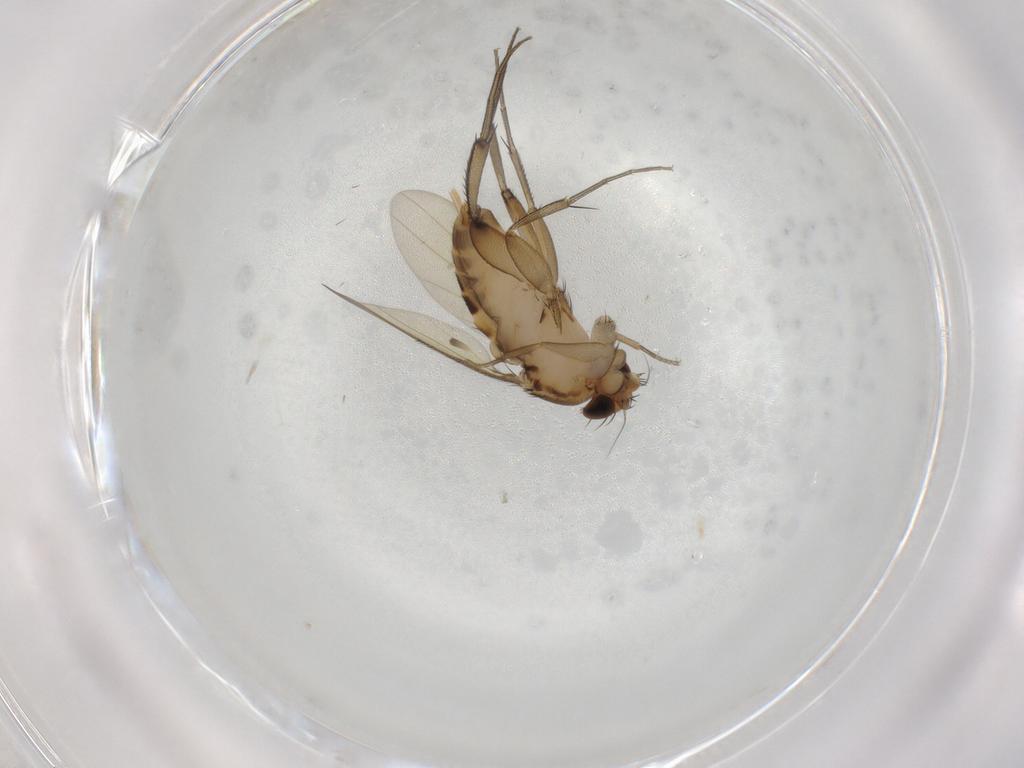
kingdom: Animalia
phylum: Arthropoda
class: Insecta
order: Diptera
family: Phoridae
